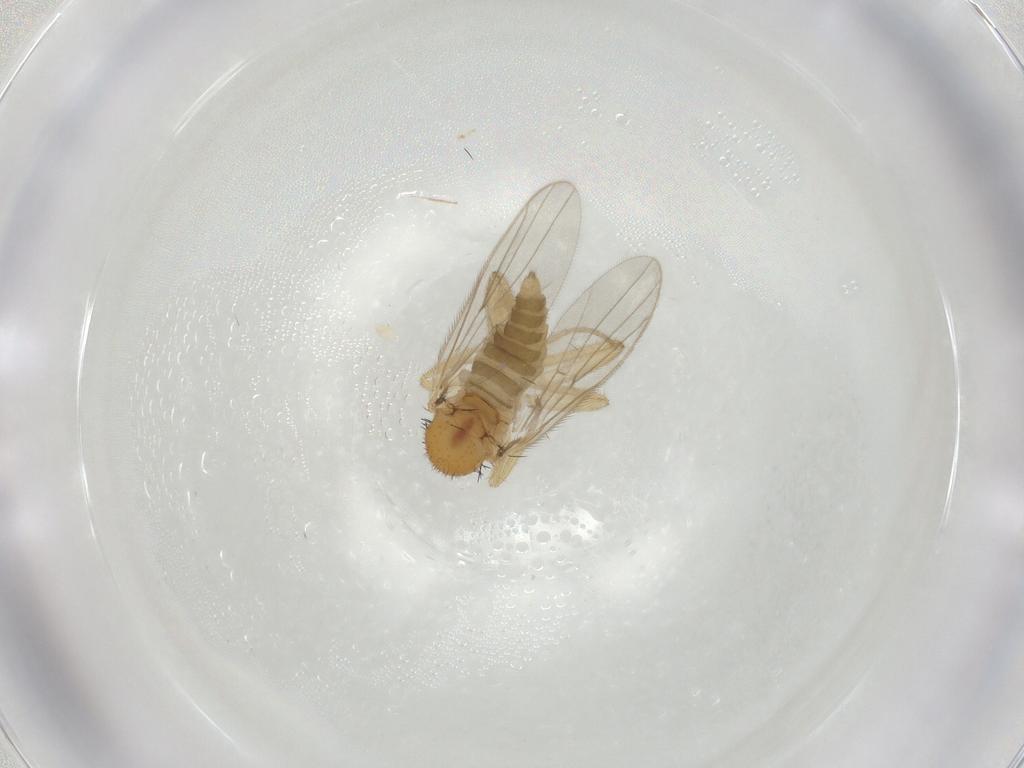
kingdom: Animalia
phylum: Arthropoda
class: Insecta
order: Diptera
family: Hybotidae
